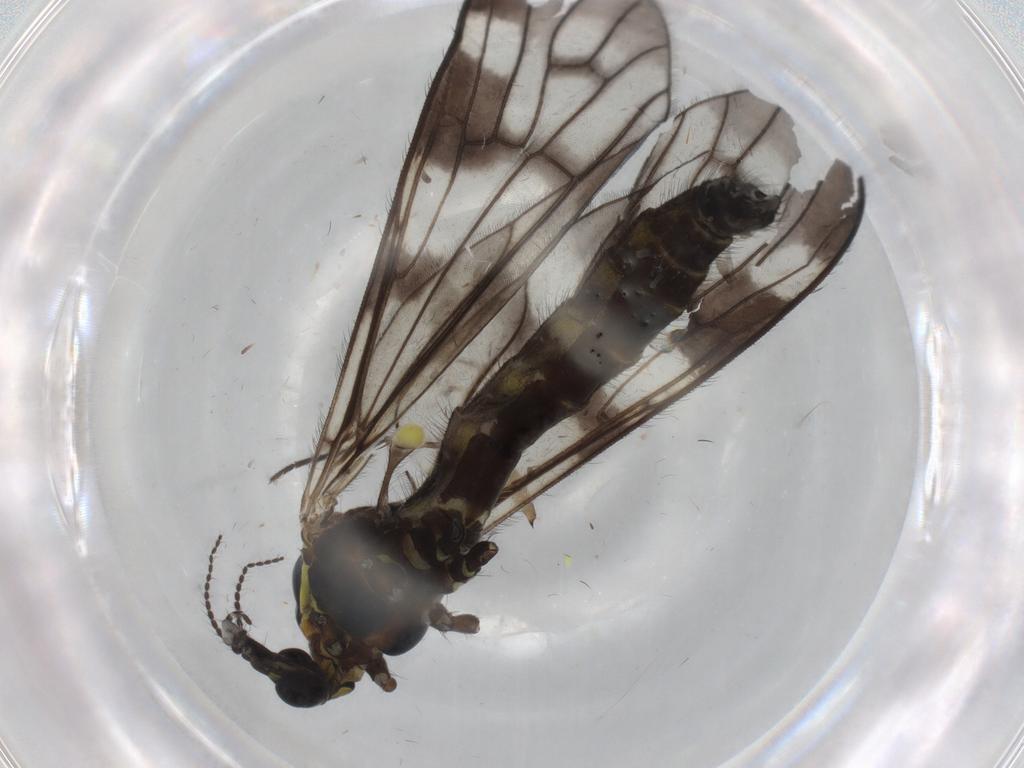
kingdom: Animalia
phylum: Arthropoda
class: Insecta
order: Diptera
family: Limoniidae
